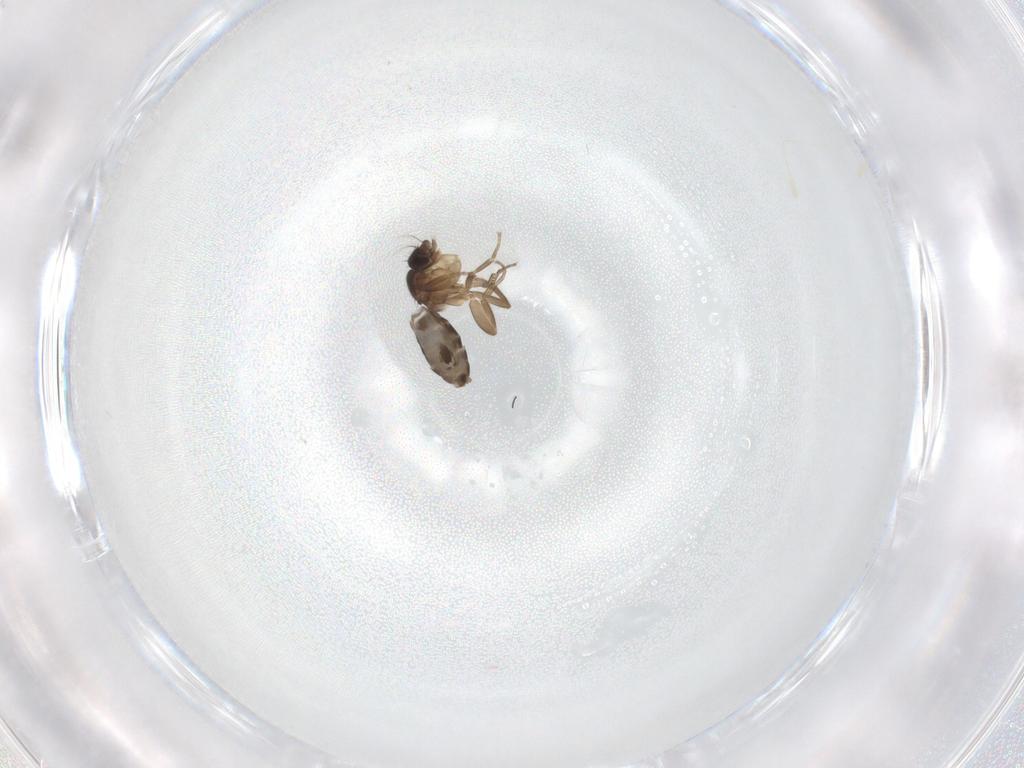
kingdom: Animalia
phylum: Arthropoda
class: Insecta
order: Diptera
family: Phoridae
